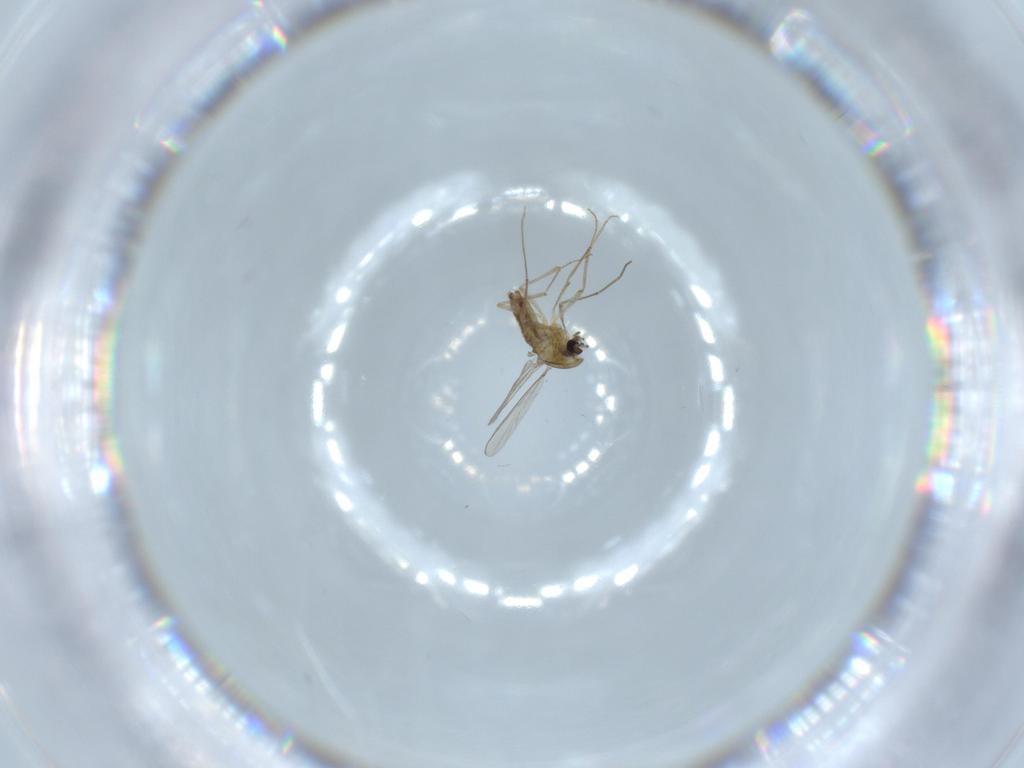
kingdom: Animalia
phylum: Arthropoda
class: Insecta
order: Diptera
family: Chironomidae
